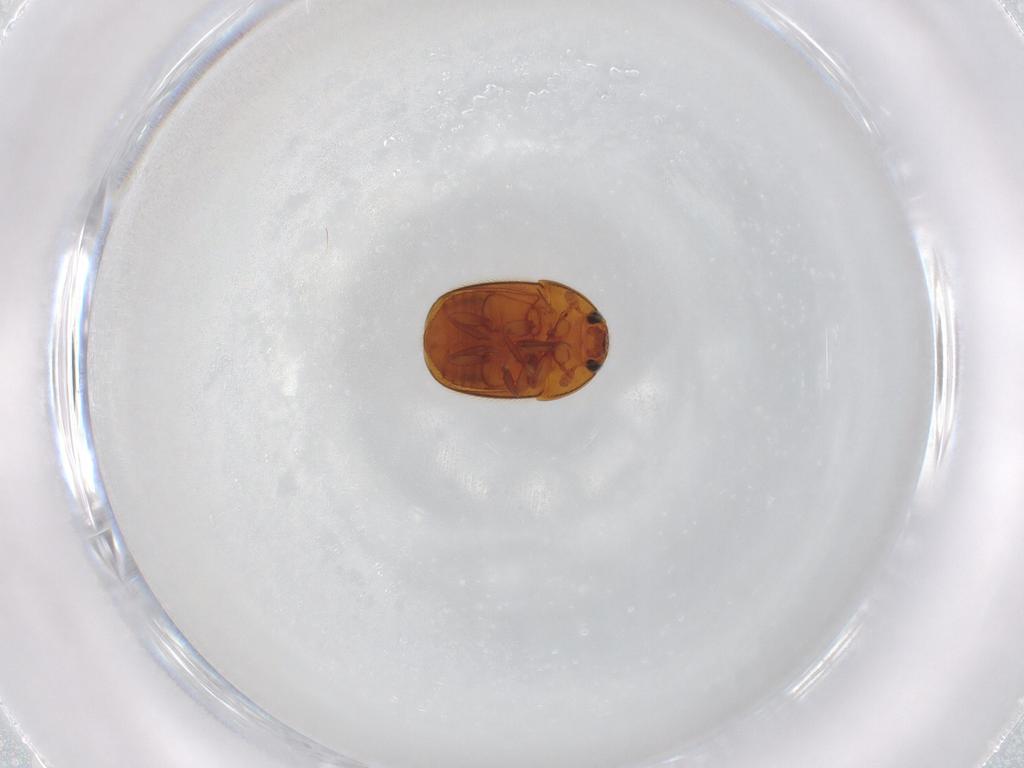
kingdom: Animalia
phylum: Arthropoda
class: Insecta
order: Coleoptera
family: Nitidulidae
